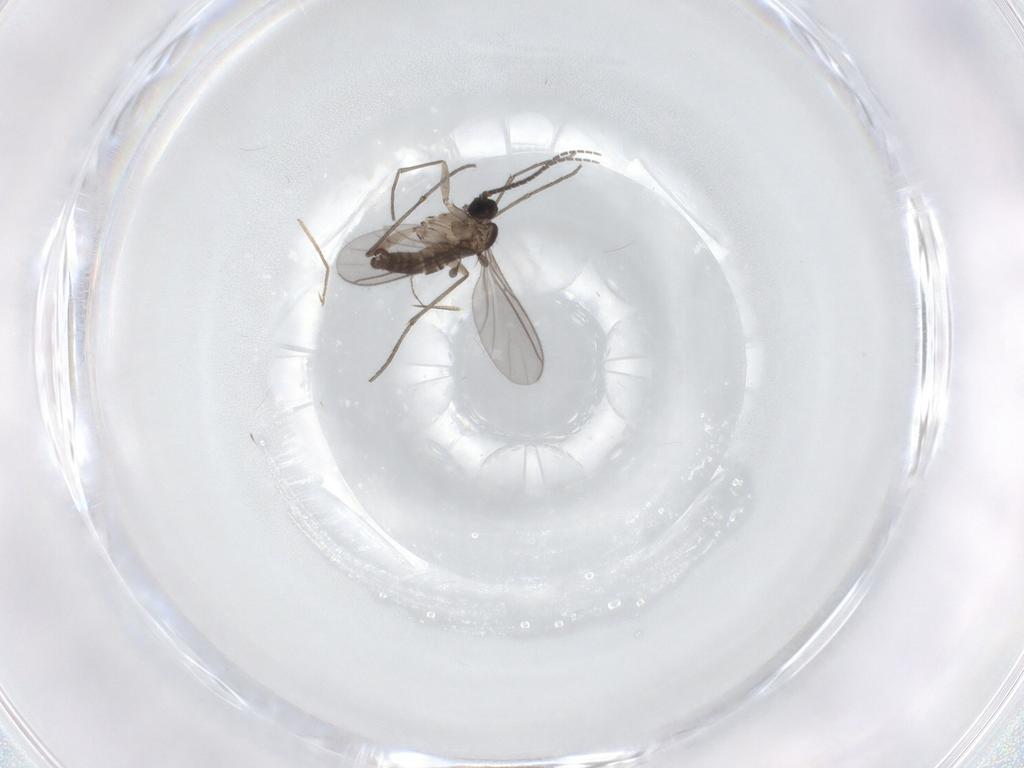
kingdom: Animalia
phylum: Arthropoda
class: Insecta
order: Diptera
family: Sciaridae
